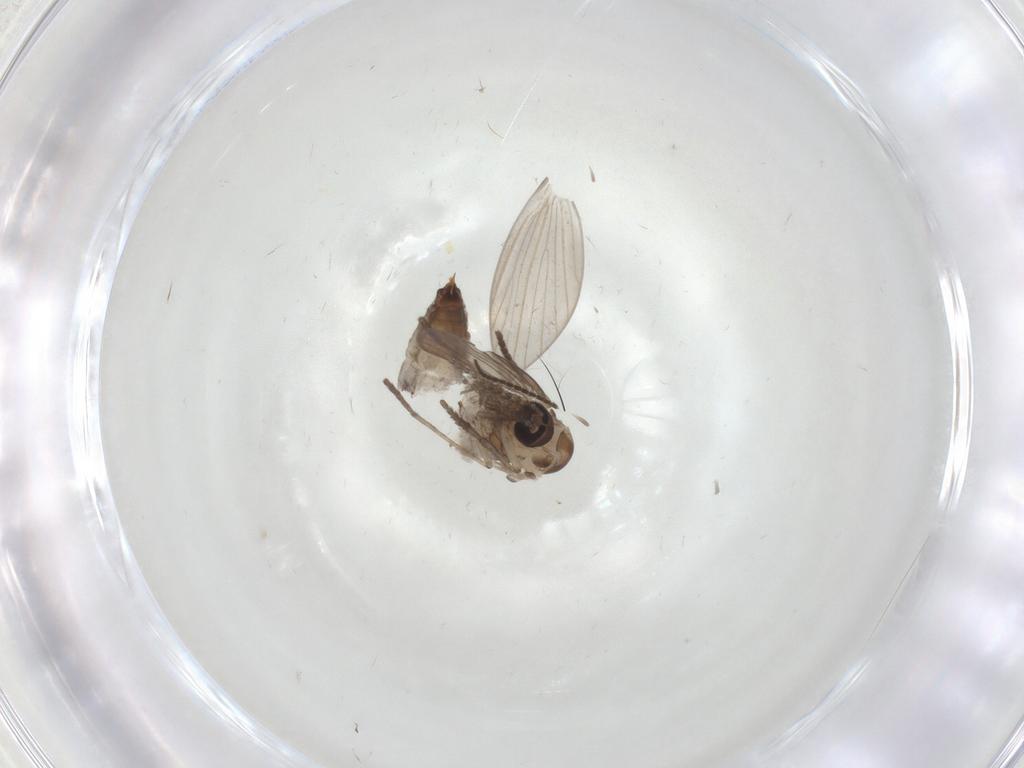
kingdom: Animalia
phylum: Arthropoda
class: Insecta
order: Diptera
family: Psychodidae
